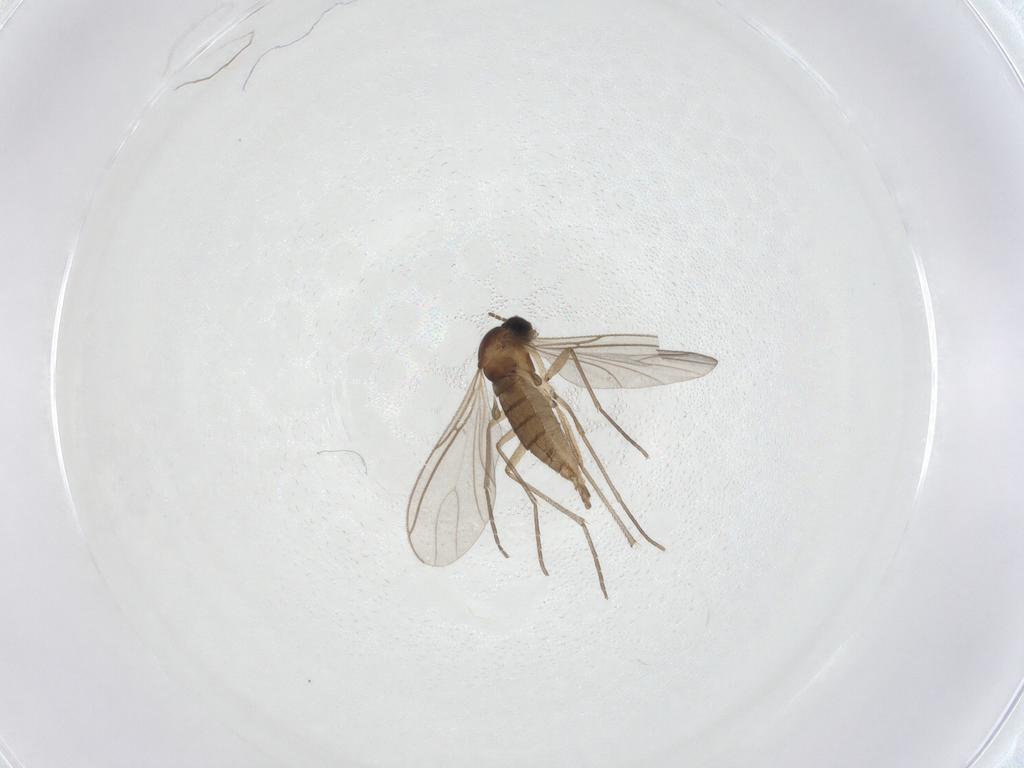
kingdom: Animalia
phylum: Arthropoda
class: Insecta
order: Diptera
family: Sciaridae
